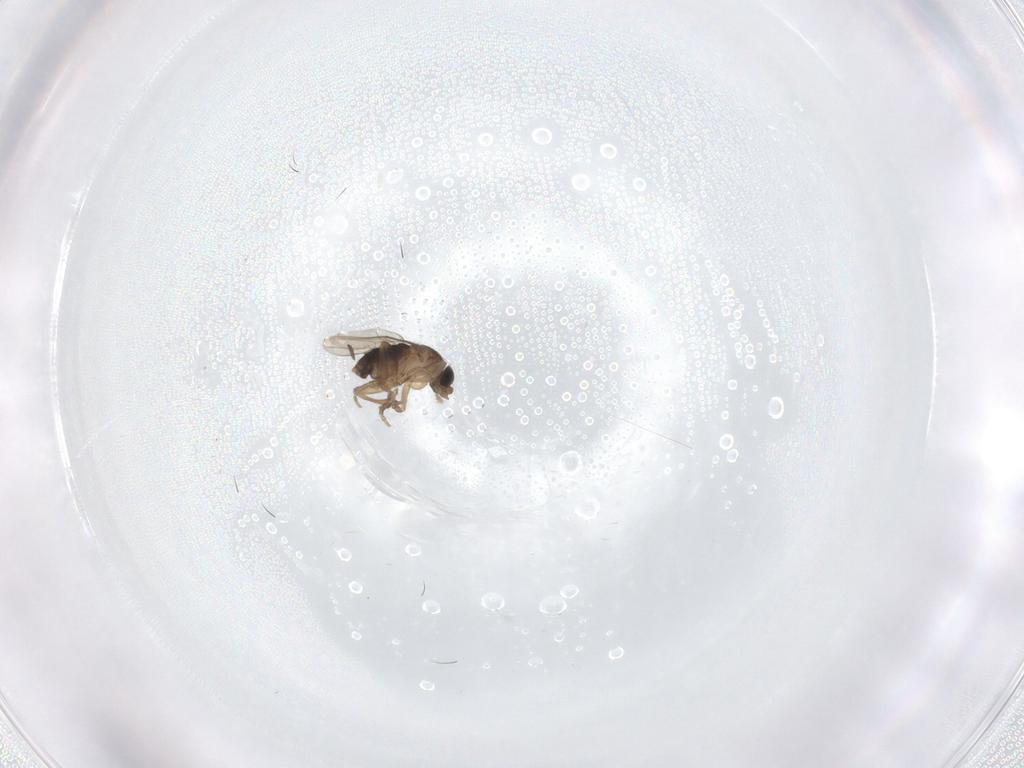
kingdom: Animalia
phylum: Arthropoda
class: Insecta
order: Diptera
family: Phoridae
